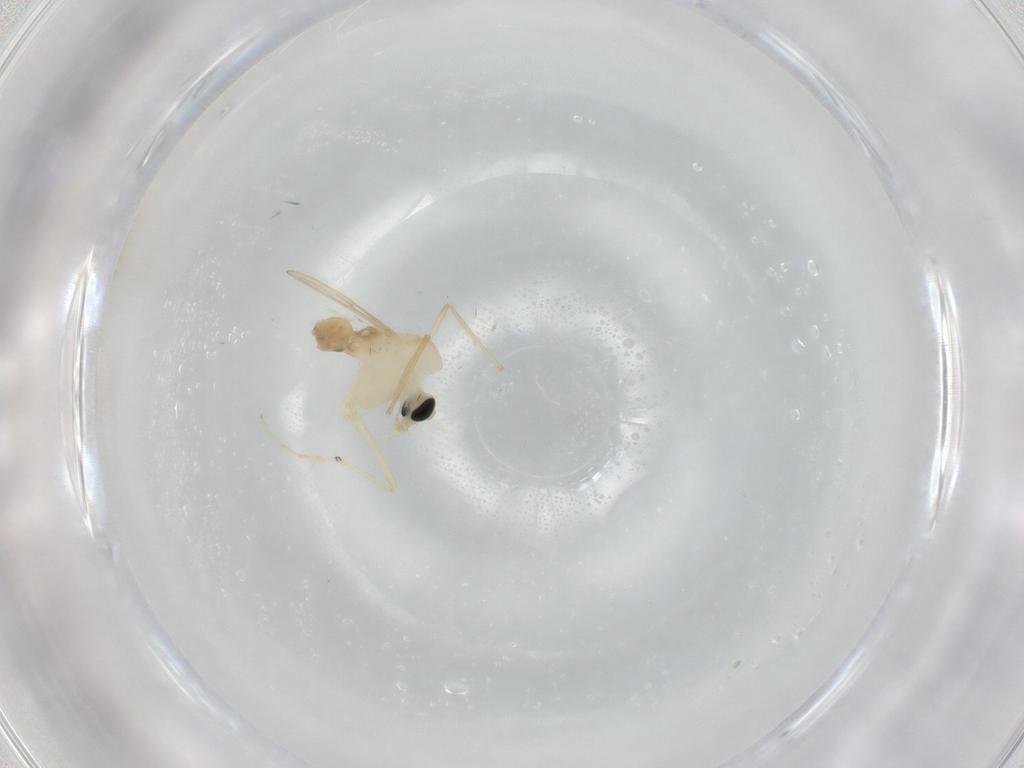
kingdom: Animalia
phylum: Arthropoda
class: Insecta
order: Diptera
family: Chironomidae
